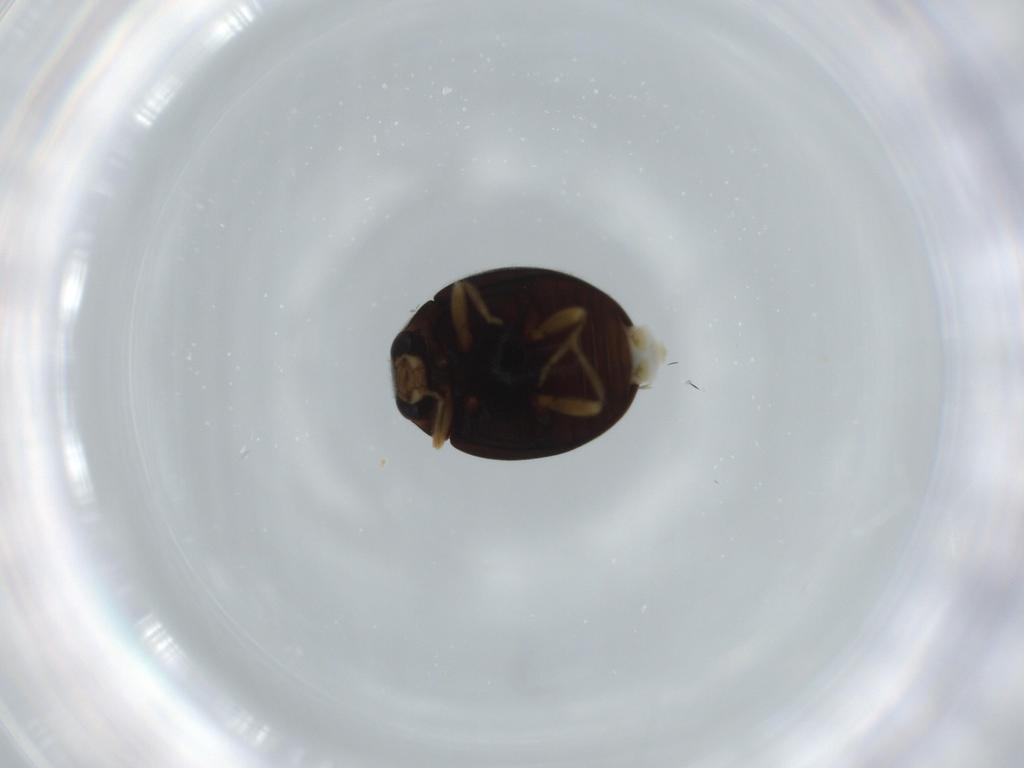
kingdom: Animalia
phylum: Arthropoda
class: Insecta
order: Coleoptera
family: Coccinellidae
